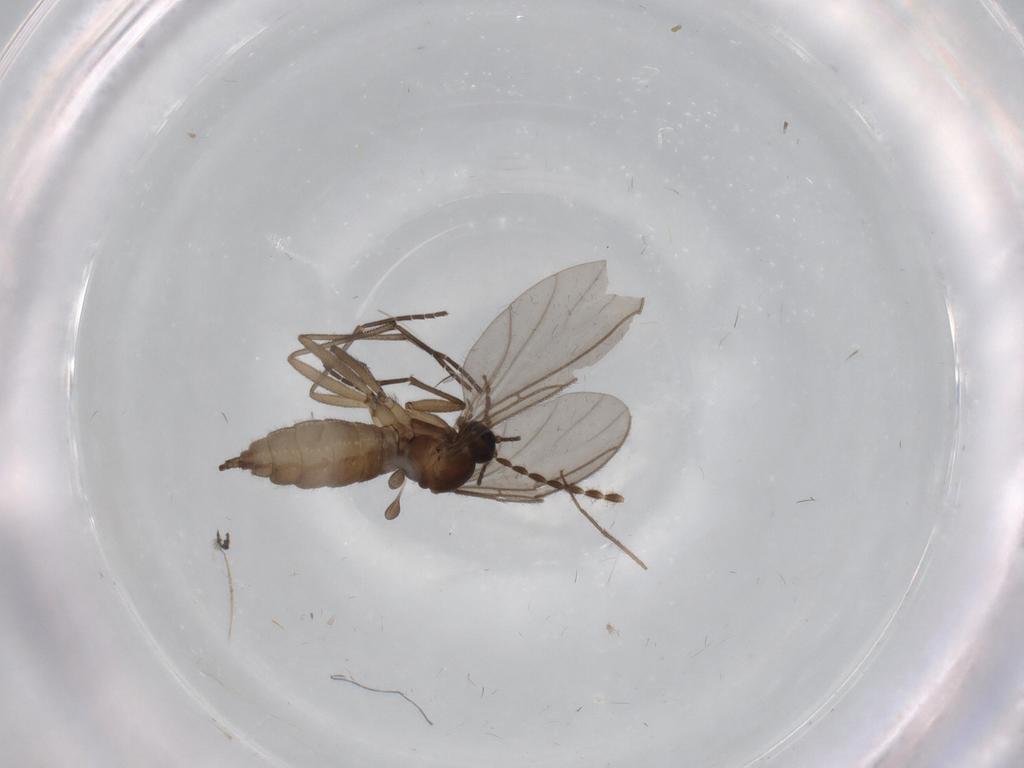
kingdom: Animalia
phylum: Arthropoda
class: Insecta
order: Diptera
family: Sciaridae
